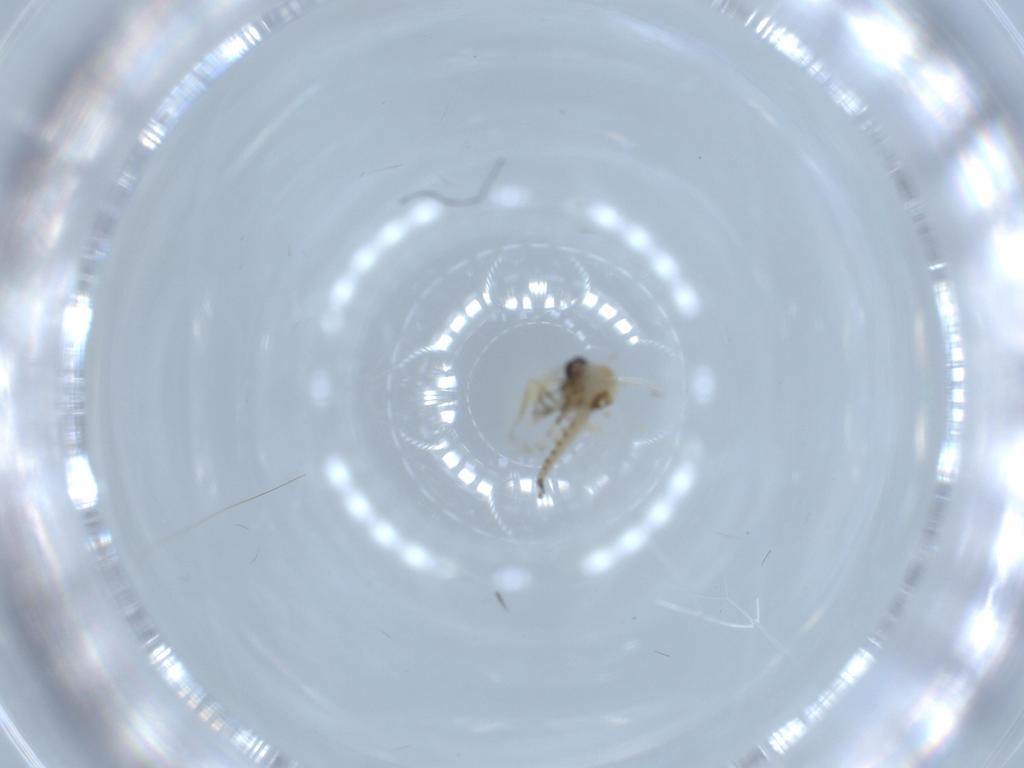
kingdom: Animalia
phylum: Arthropoda
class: Insecta
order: Diptera
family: Ceratopogonidae
